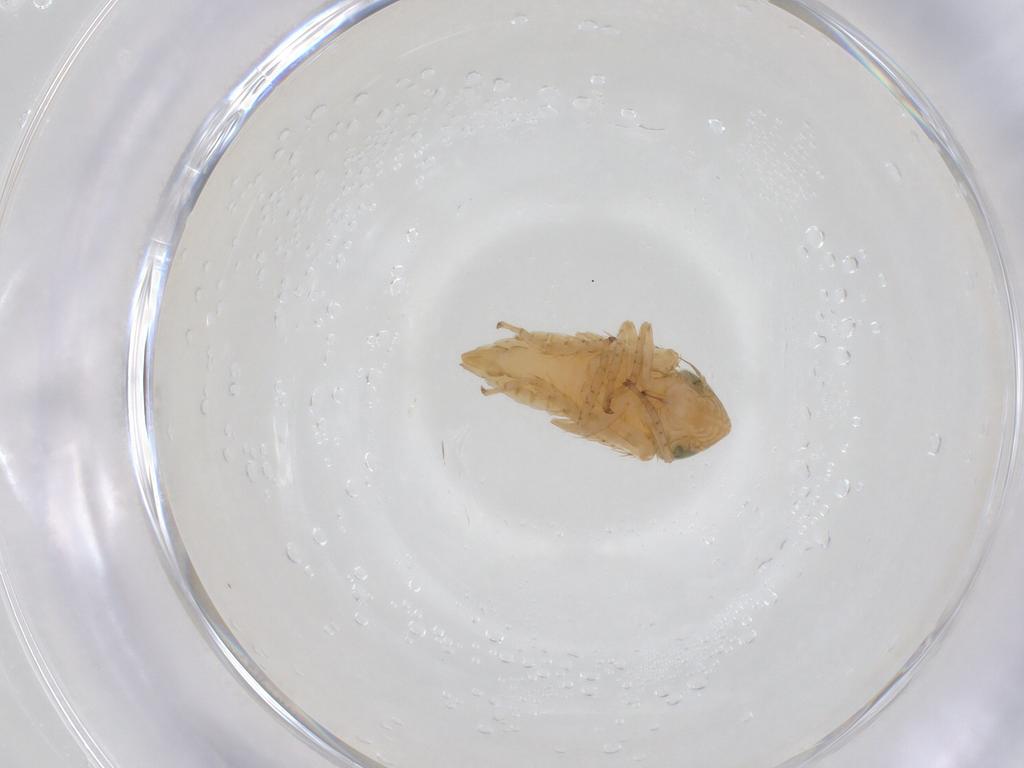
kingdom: Animalia
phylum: Arthropoda
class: Insecta
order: Hemiptera
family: Cicadellidae
